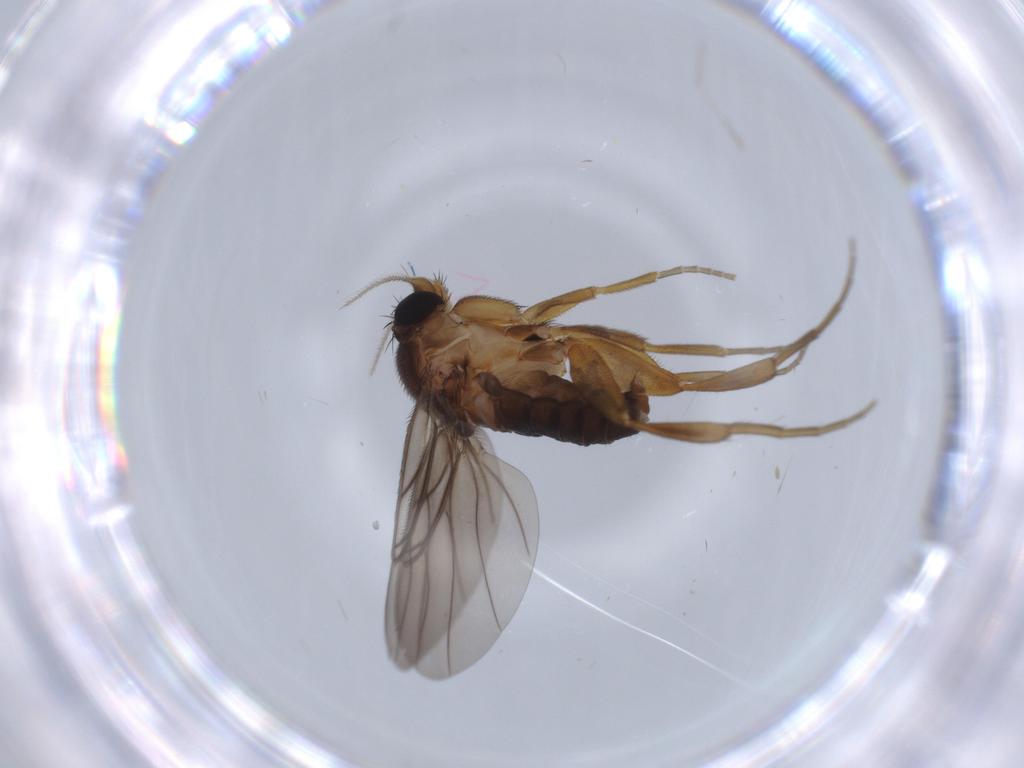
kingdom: Animalia
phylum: Arthropoda
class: Insecta
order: Diptera
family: Phoridae
